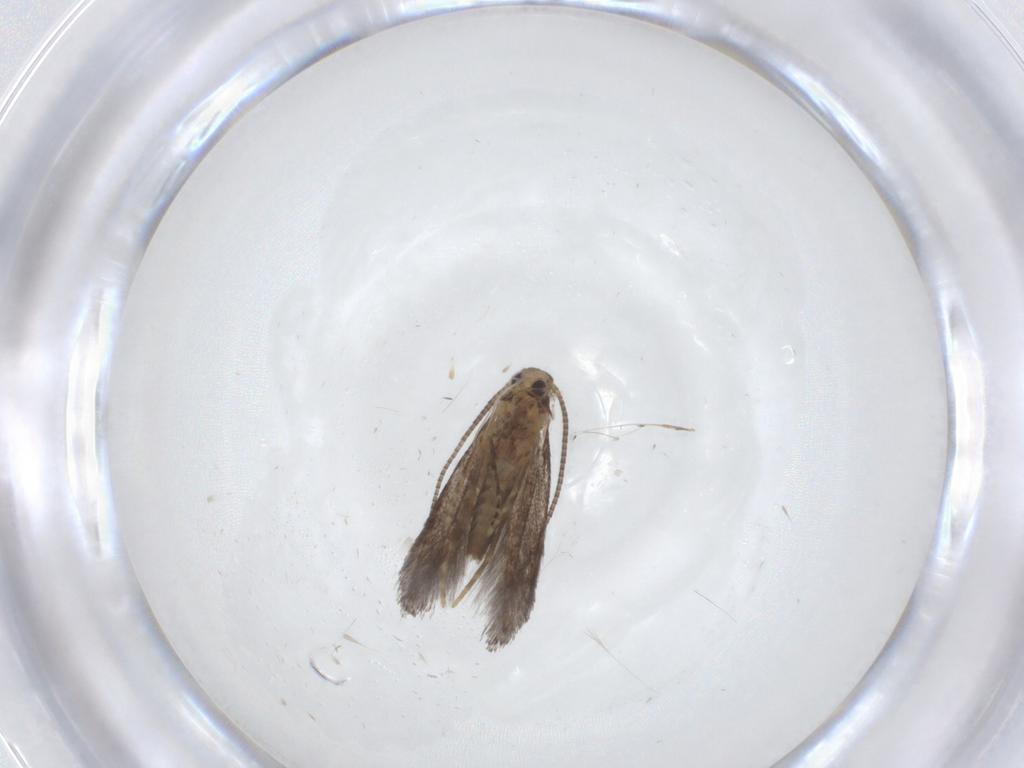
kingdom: Animalia
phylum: Arthropoda
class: Insecta
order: Lepidoptera
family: Gracillariidae
